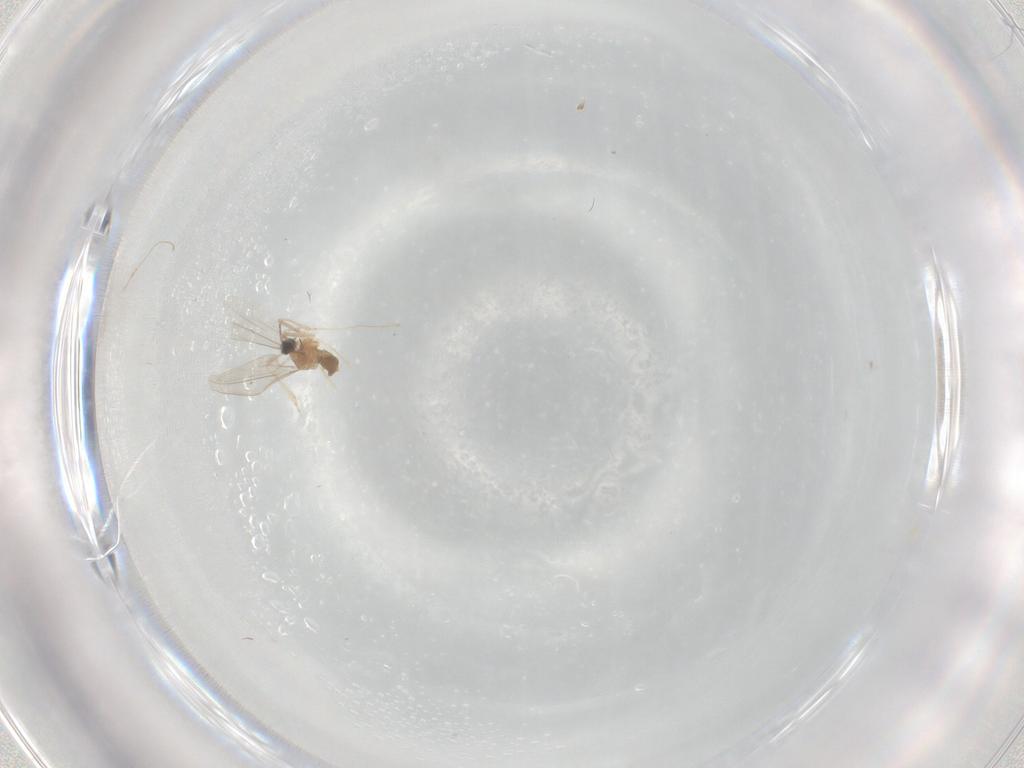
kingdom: Animalia
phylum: Arthropoda
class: Insecta
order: Diptera
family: Cecidomyiidae
